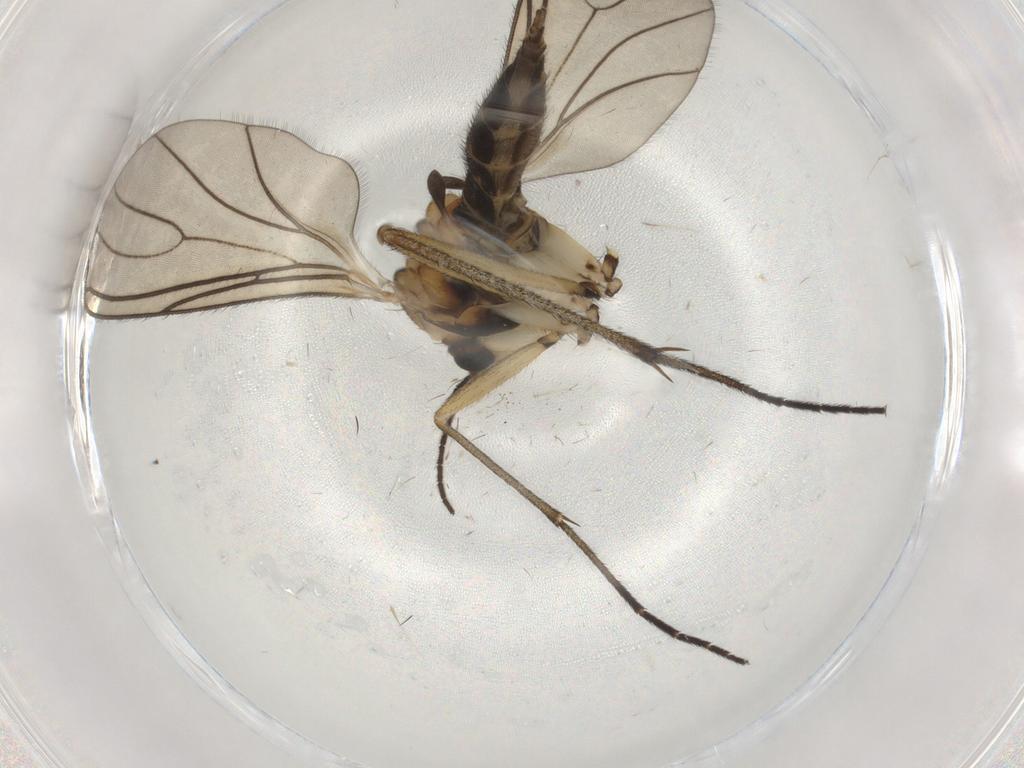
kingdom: Animalia
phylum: Arthropoda
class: Insecta
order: Diptera
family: Sciaridae
